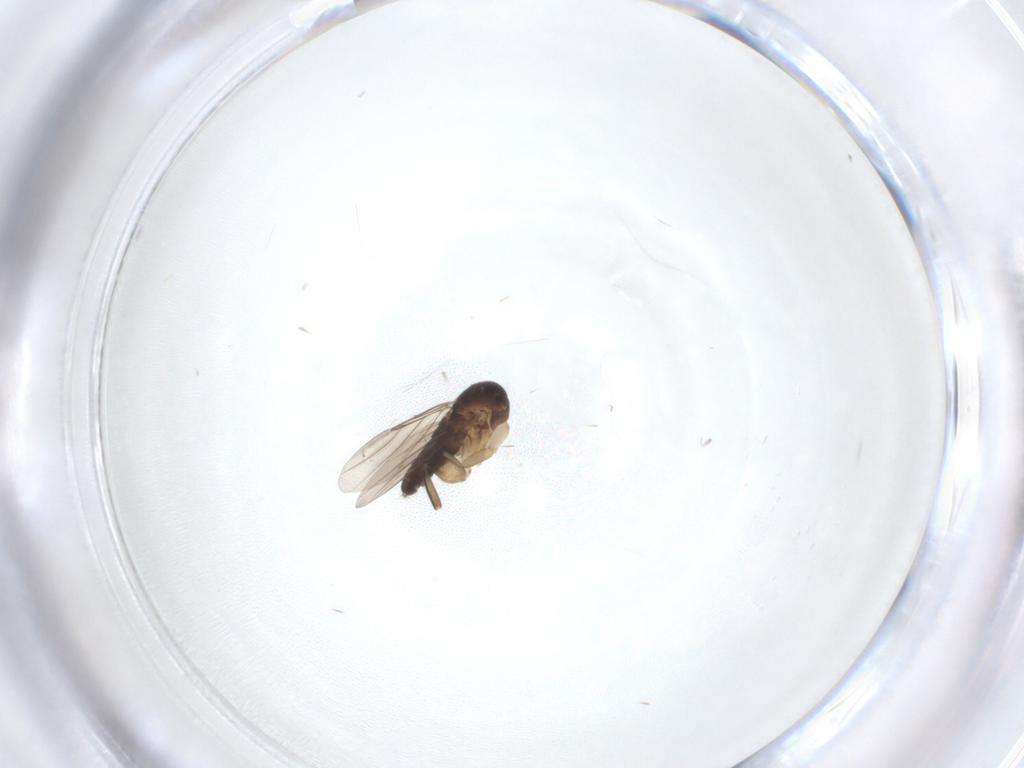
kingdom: Animalia
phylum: Arthropoda
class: Insecta
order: Diptera
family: Phoridae
